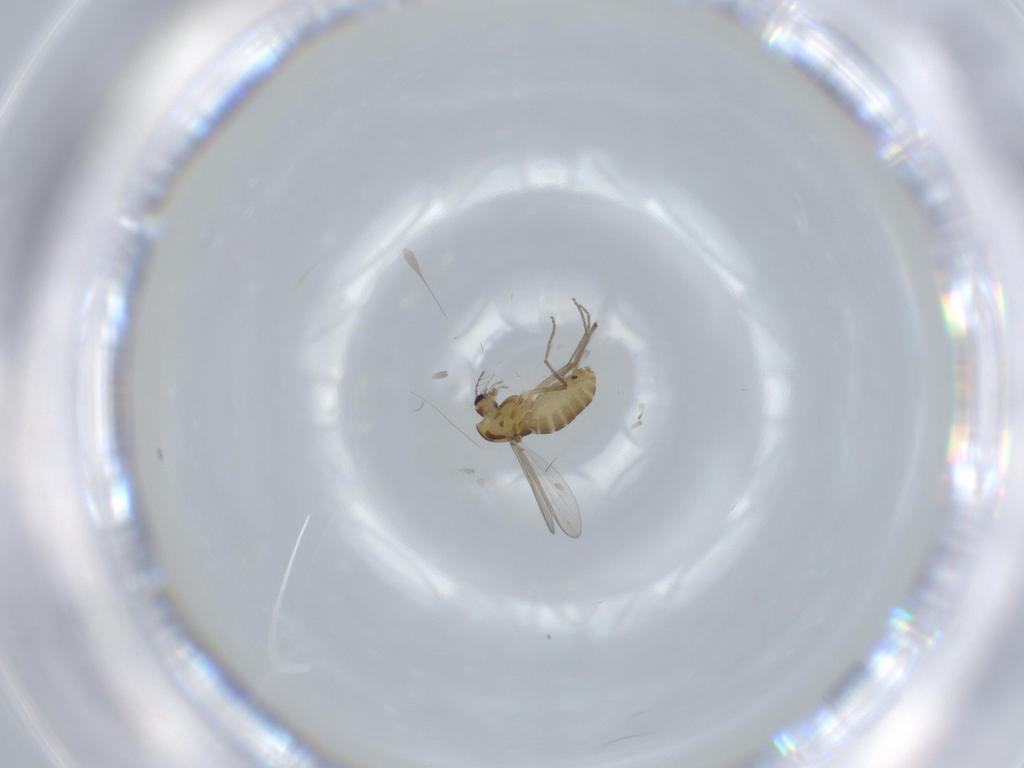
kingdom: Animalia
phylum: Arthropoda
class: Insecta
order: Diptera
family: Chironomidae
